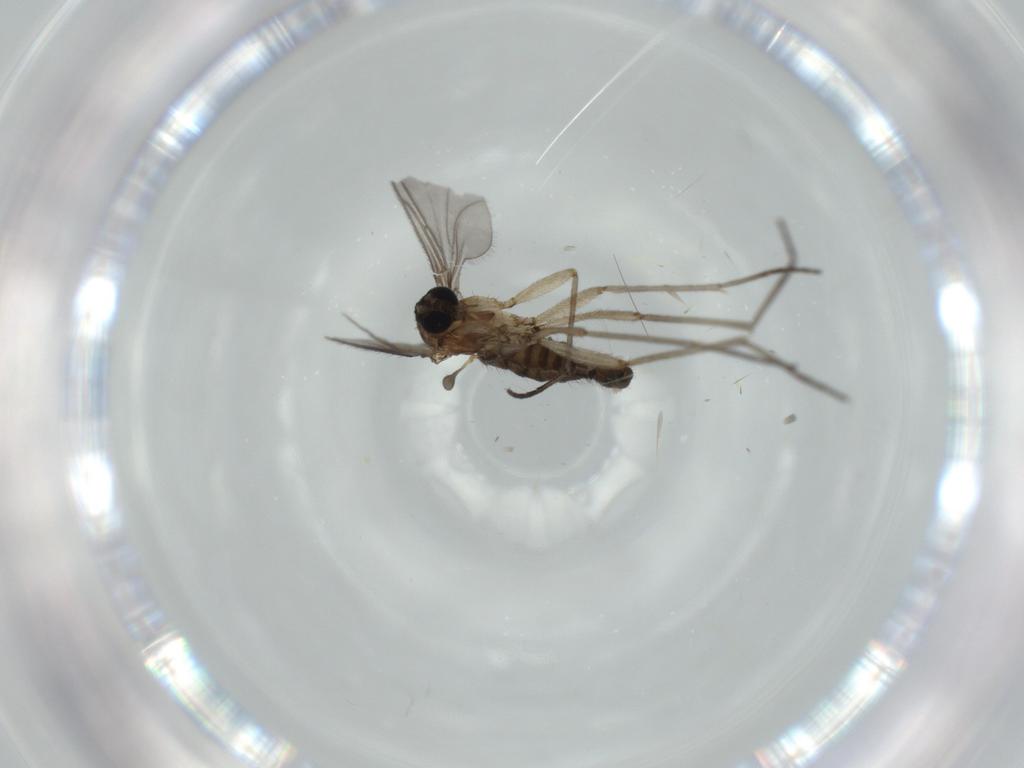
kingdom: Animalia
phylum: Arthropoda
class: Insecta
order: Diptera
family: Sciaridae
